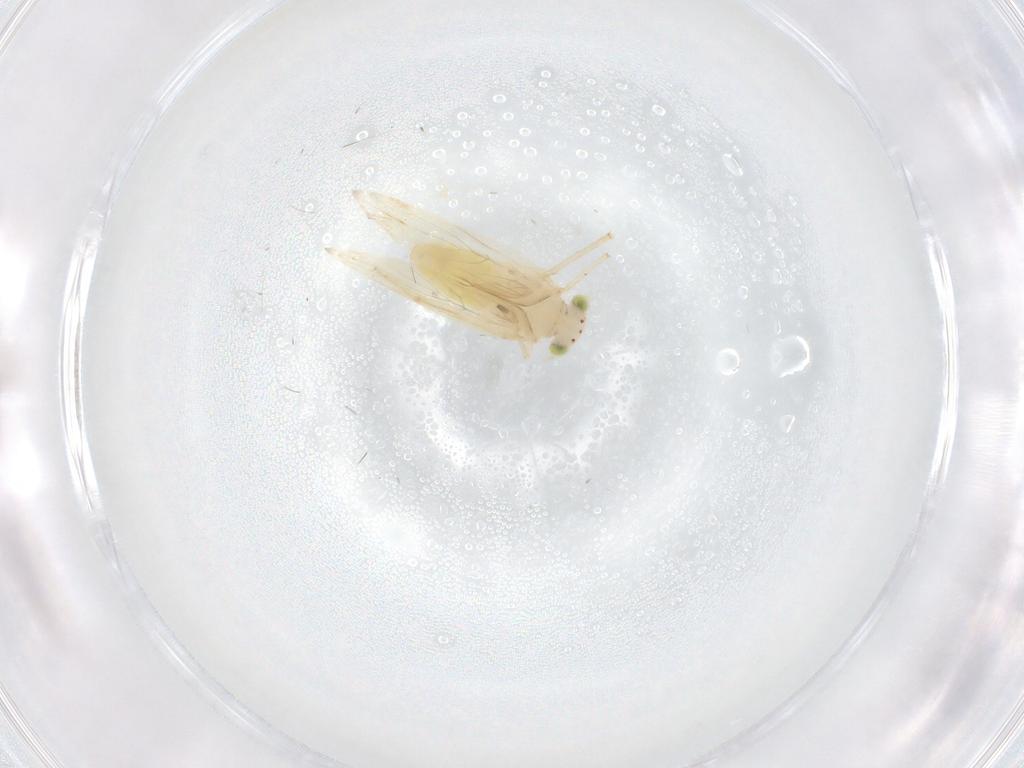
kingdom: Animalia
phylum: Arthropoda
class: Insecta
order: Psocodea
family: Lepidopsocidae
